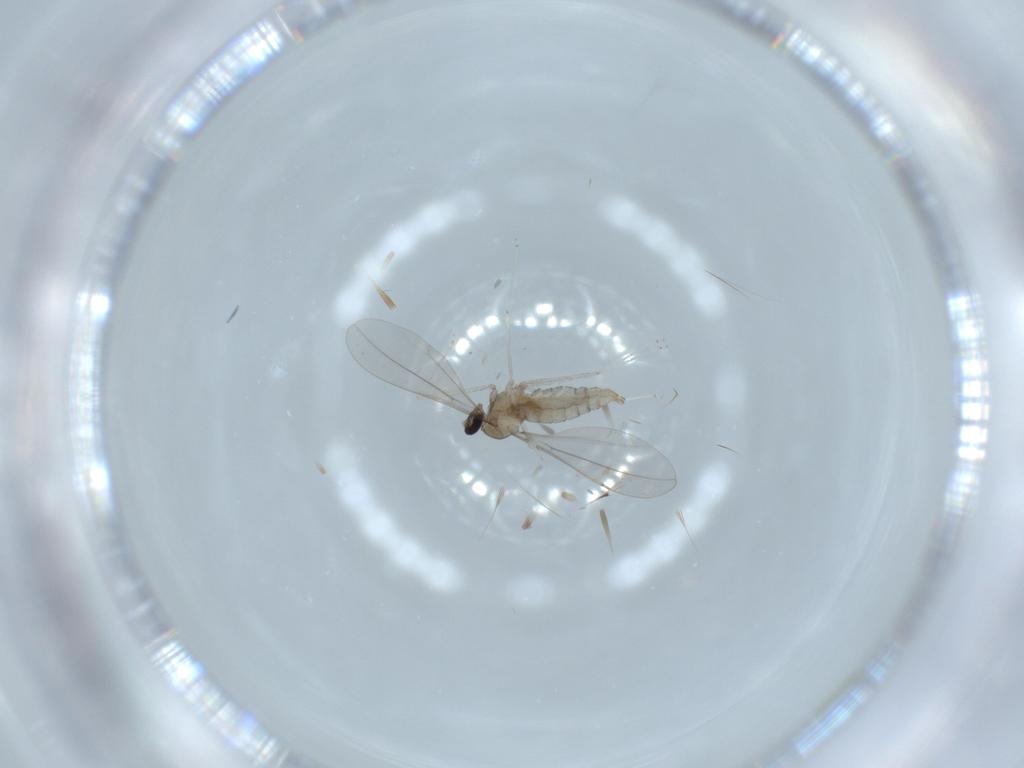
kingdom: Animalia
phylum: Arthropoda
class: Insecta
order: Diptera
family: Cecidomyiidae
